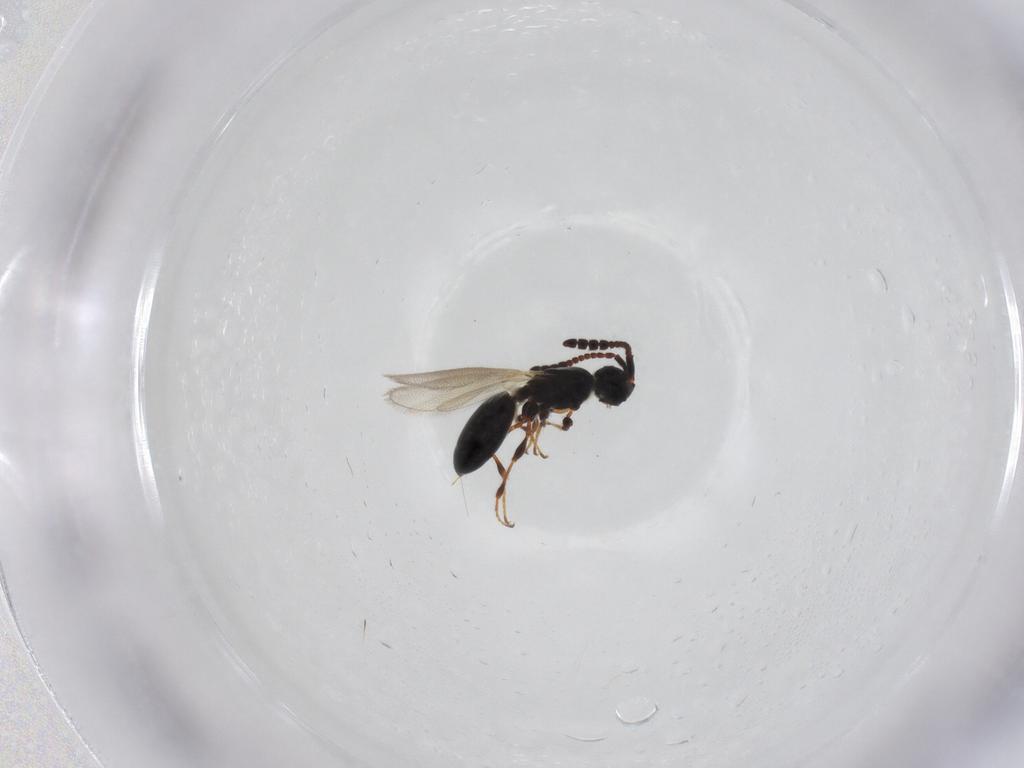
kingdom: Animalia
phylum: Arthropoda
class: Insecta
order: Hymenoptera
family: Diapriidae
